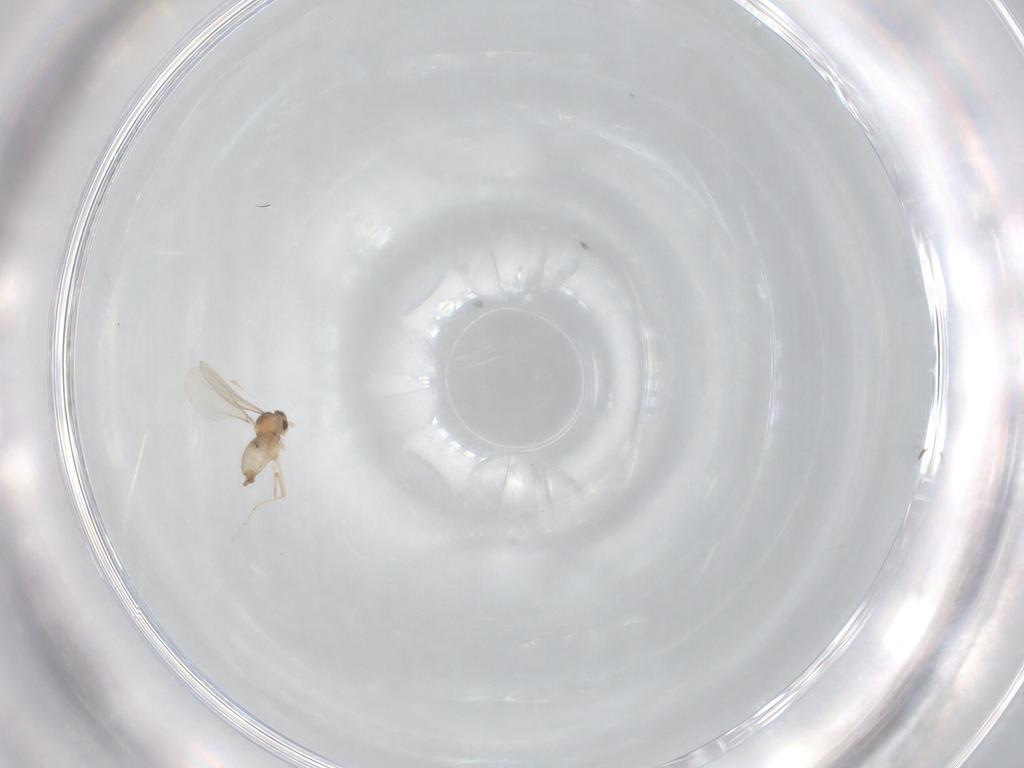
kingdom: Animalia
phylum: Arthropoda
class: Insecta
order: Diptera
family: Cecidomyiidae
